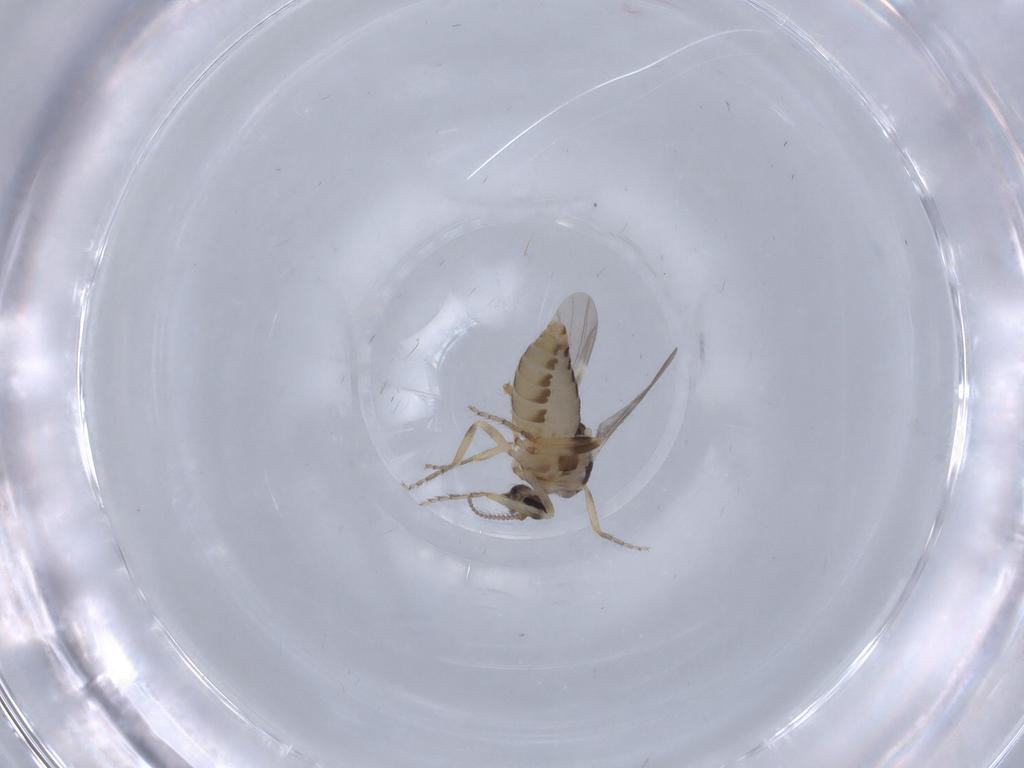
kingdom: Animalia
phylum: Arthropoda
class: Insecta
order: Diptera
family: Ceratopogonidae
